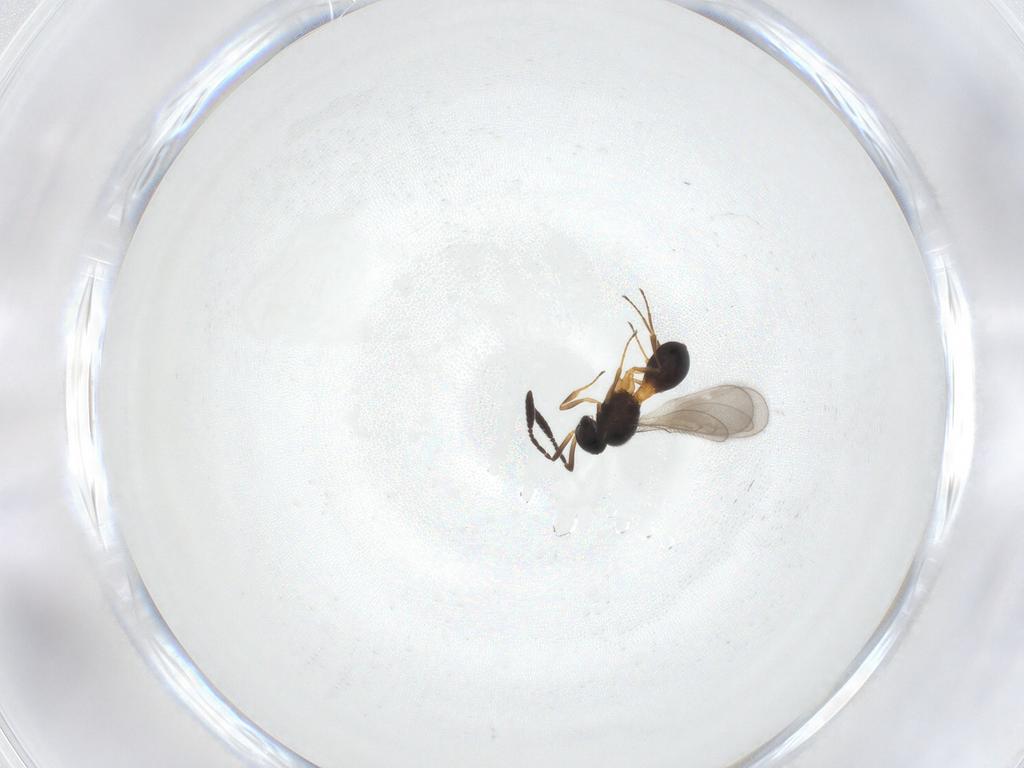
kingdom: Animalia
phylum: Arthropoda
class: Insecta
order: Hymenoptera
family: Scelionidae
